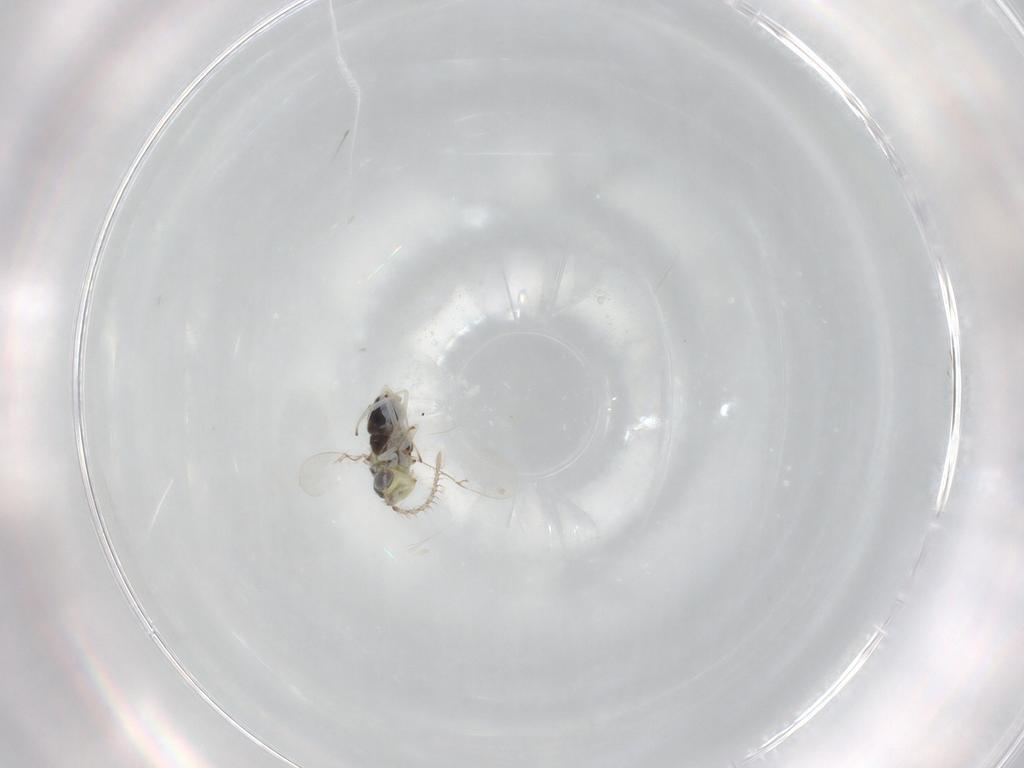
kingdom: Animalia
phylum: Arthropoda
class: Insecta
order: Hymenoptera
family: Encyrtidae
